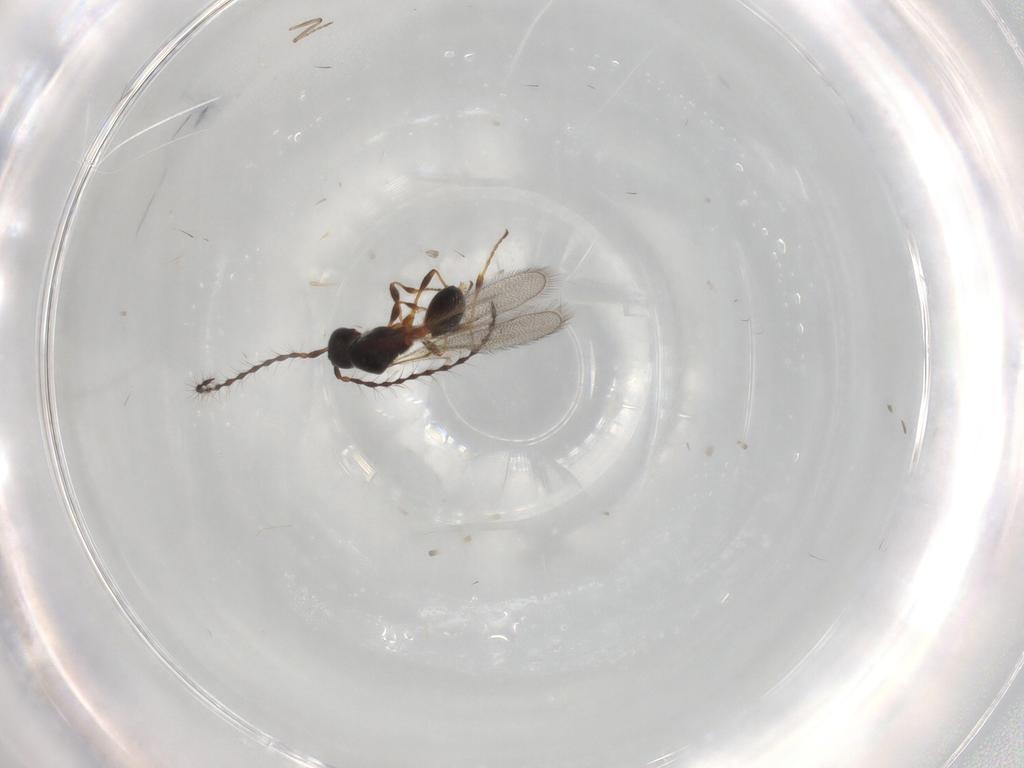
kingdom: Animalia
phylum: Arthropoda
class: Insecta
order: Hymenoptera
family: Diapriidae
